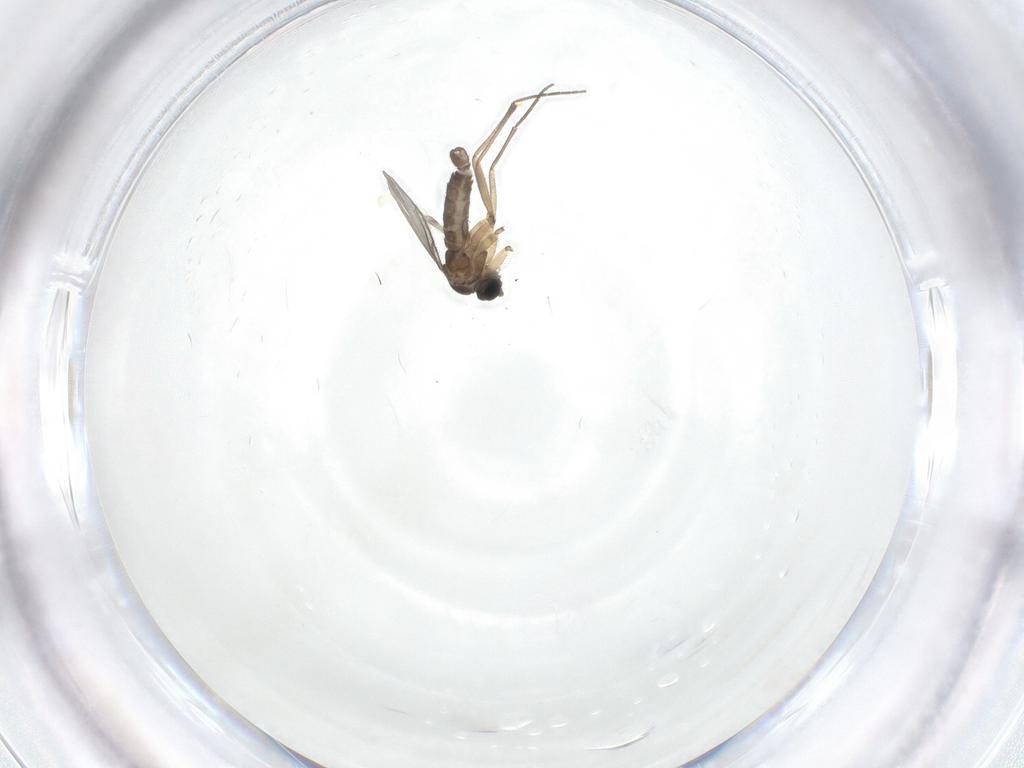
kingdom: Animalia
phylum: Arthropoda
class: Insecta
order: Diptera
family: Sciaridae
